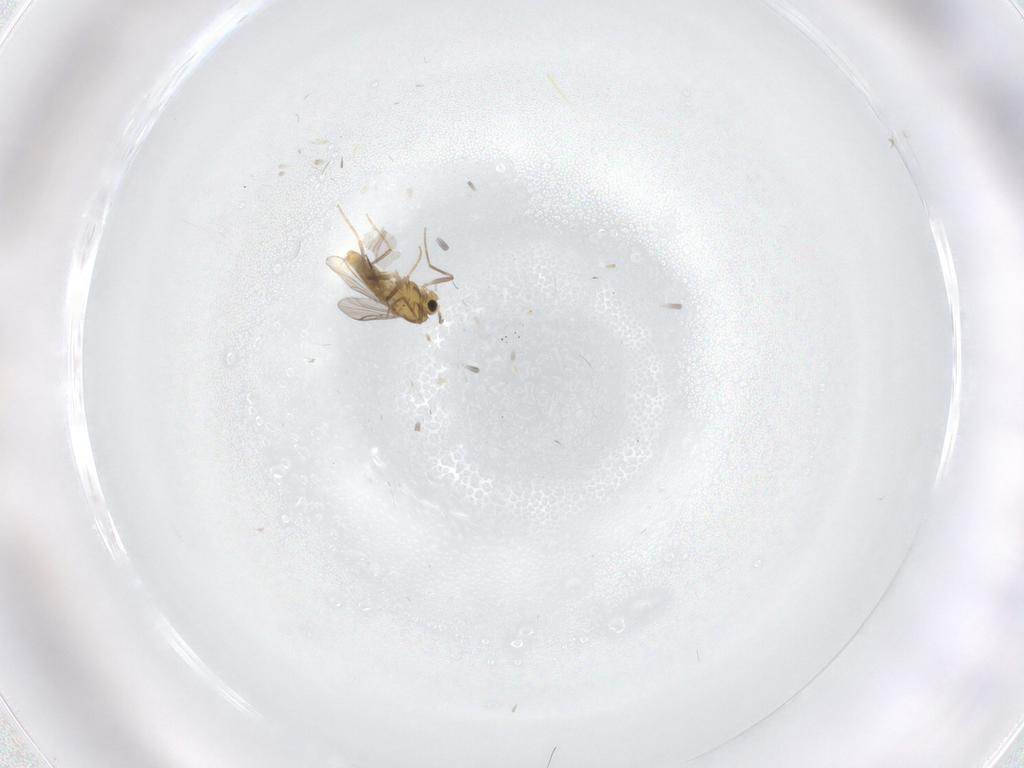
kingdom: Animalia
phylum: Arthropoda
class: Insecta
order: Diptera
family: Chironomidae
